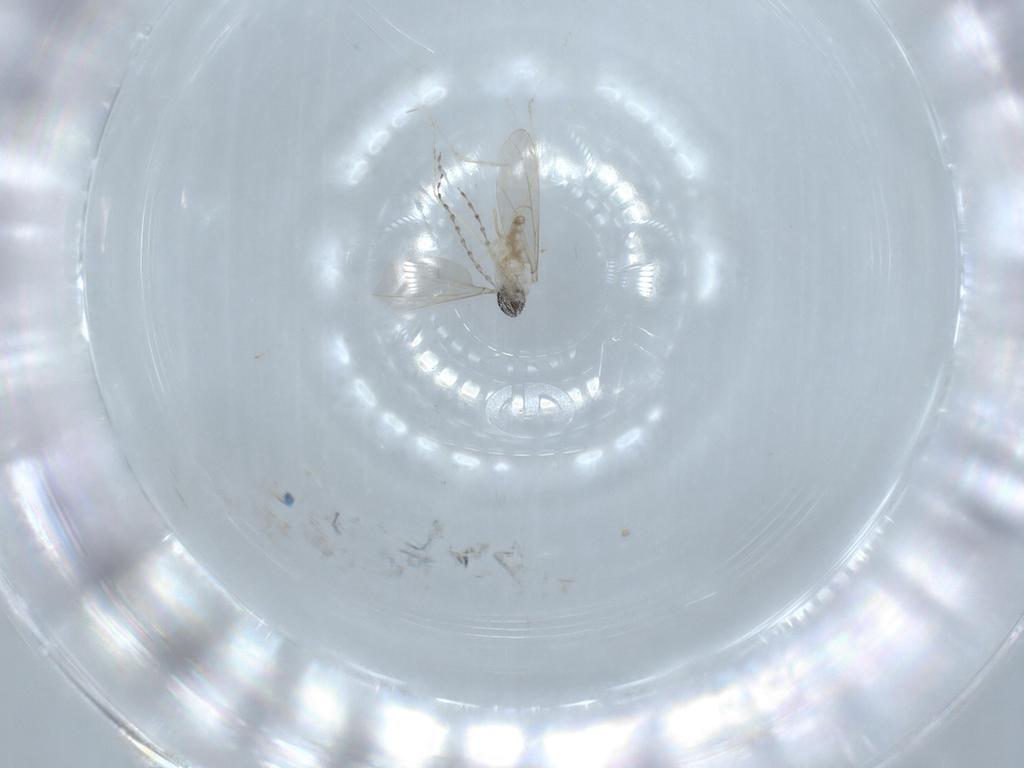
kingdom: Animalia
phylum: Arthropoda
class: Insecta
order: Diptera
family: Cecidomyiidae
